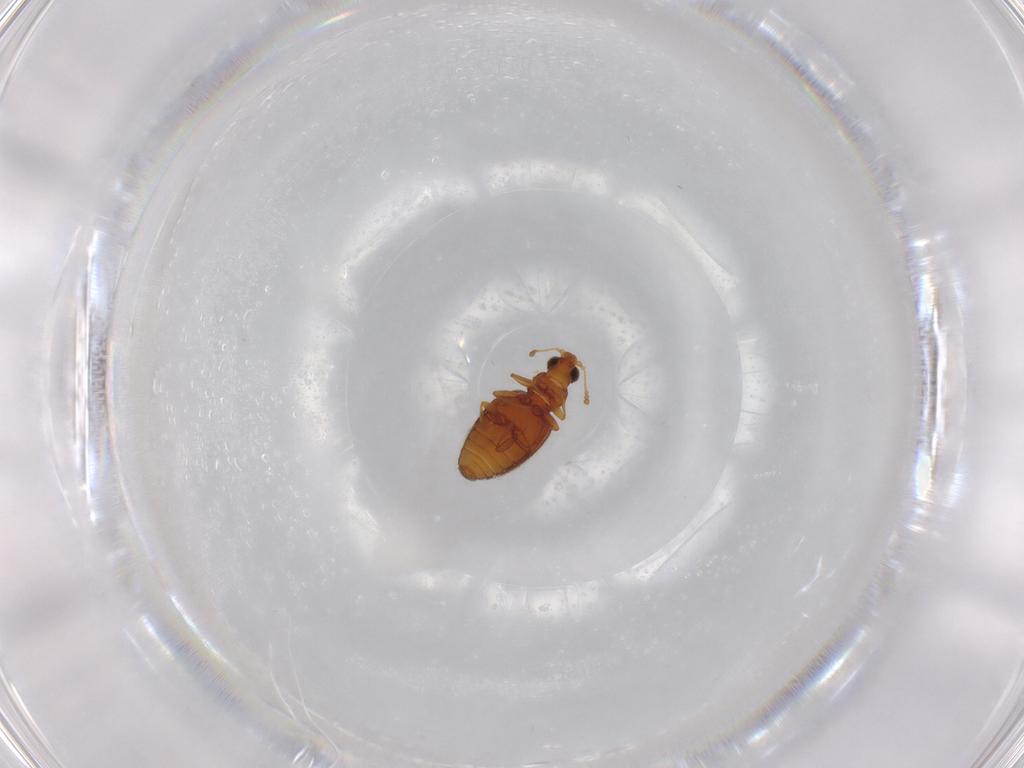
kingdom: Animalia
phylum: Arthropoda
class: Insecta
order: Coleoptera
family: Latridiidae
